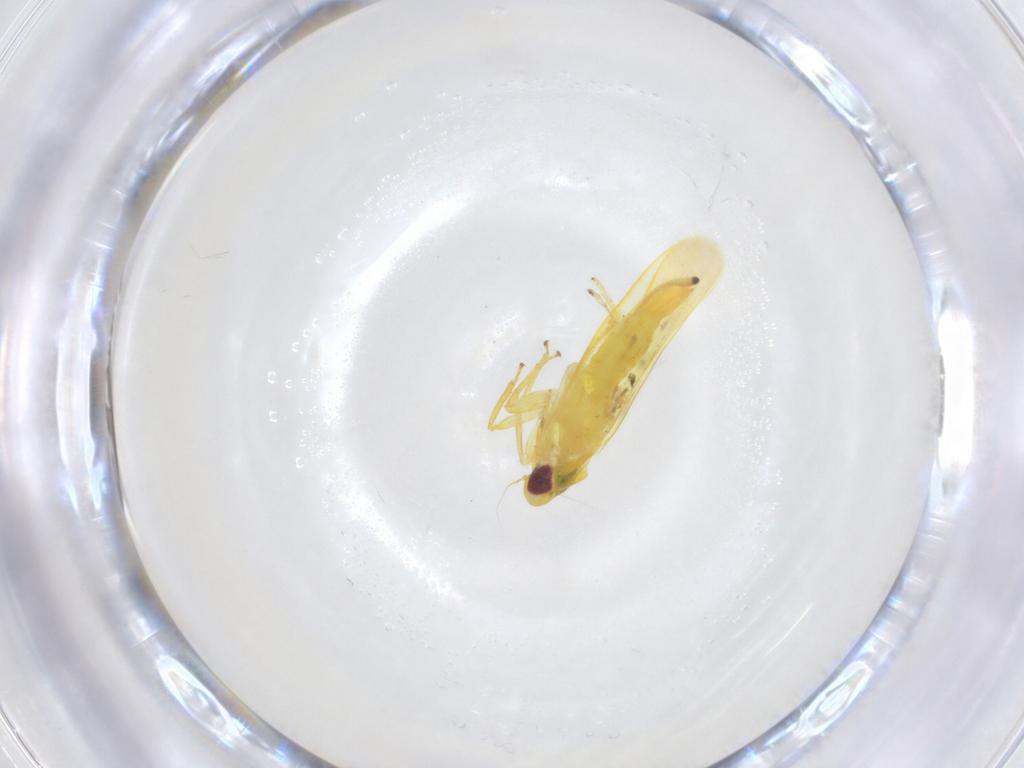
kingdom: Animalia
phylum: Arthropoda
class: Insecta
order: Hemiptera
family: Cicadellidae
